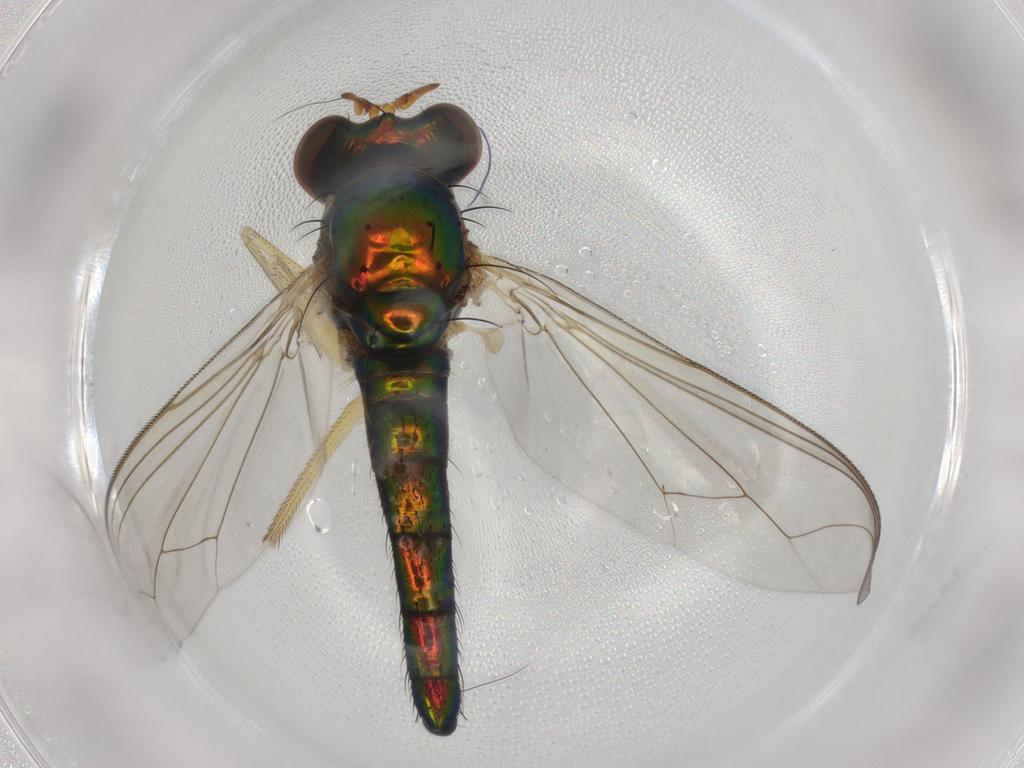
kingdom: Animalia
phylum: Arthropoda
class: Insecta
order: Diptera
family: Dolichopodidae
